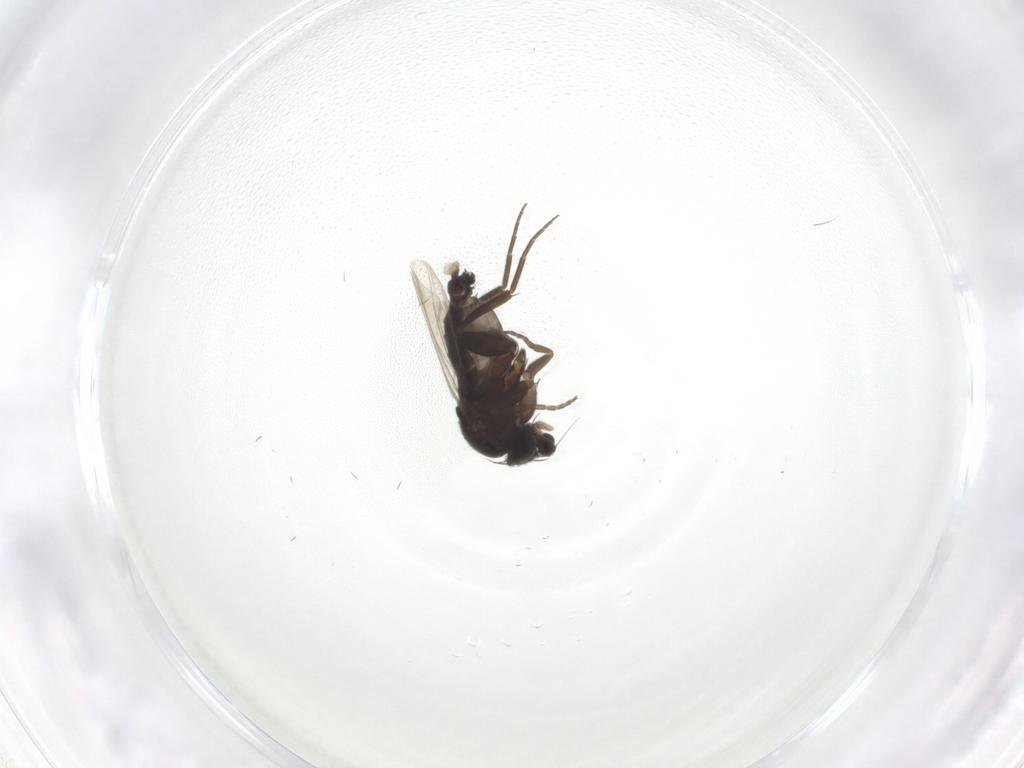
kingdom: Animalia
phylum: Arthropoda
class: Insecta
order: Diptera
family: Phoridae
